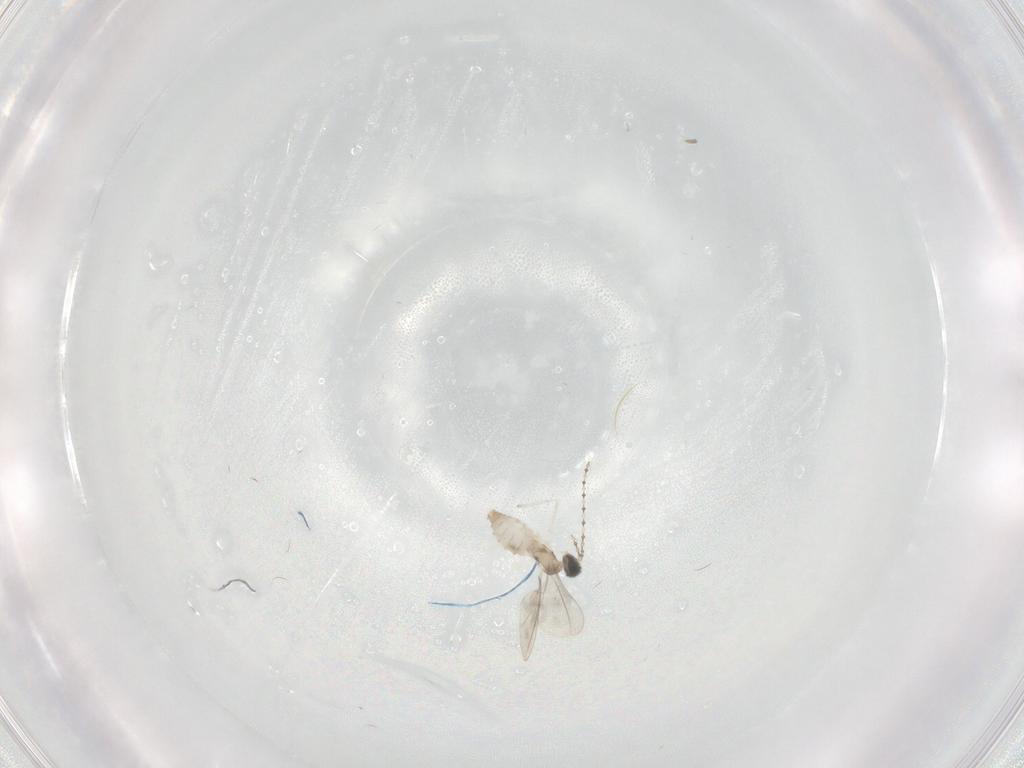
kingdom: Animalia
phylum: Arthropoda
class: Insecta
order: Diptera
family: Cecidomyiidae
